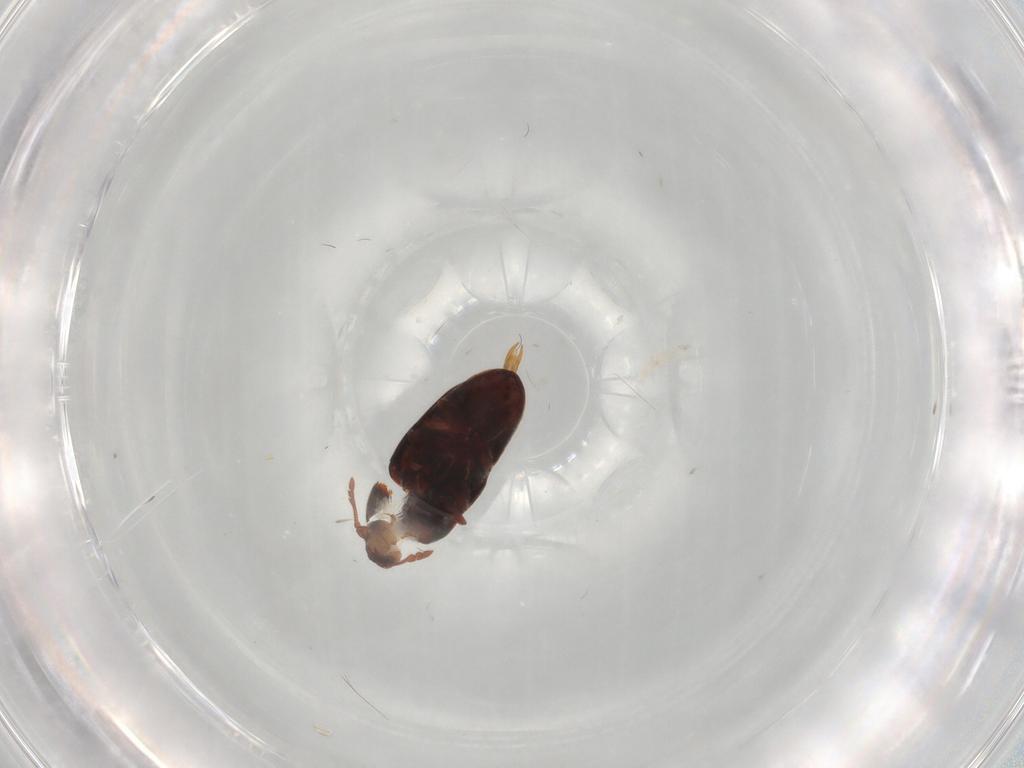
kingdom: Animalia
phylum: Arthropoda
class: Insecta
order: Coleoptera
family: Throscidae
